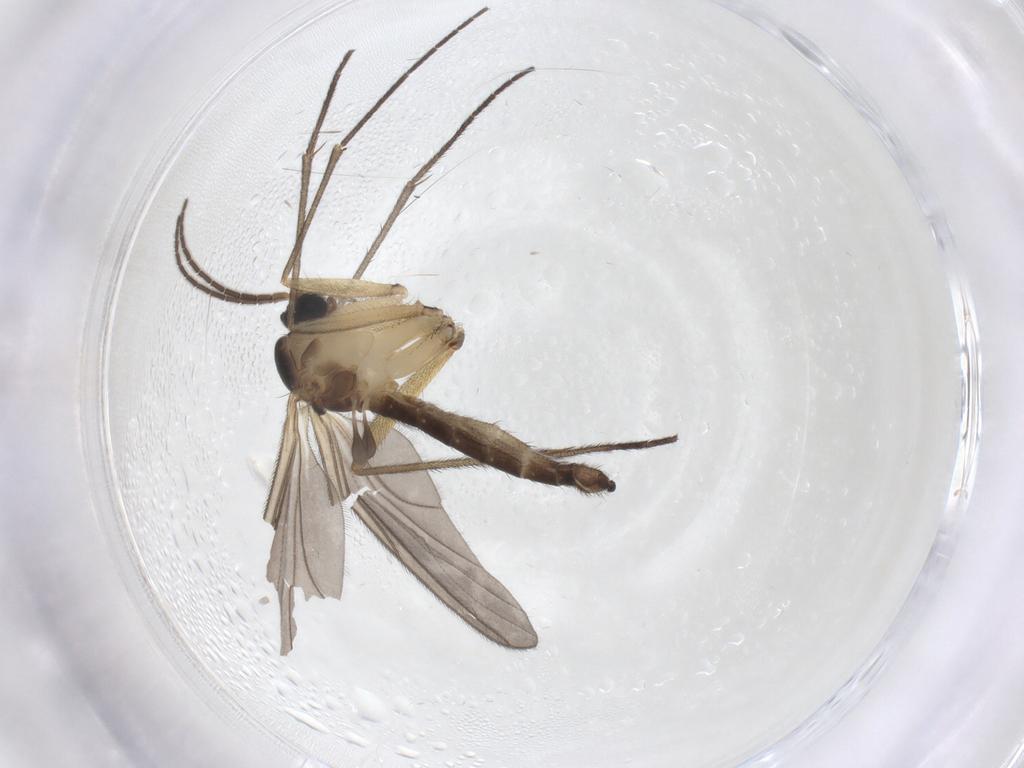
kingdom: Animalia
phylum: Arthropoda
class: Insecta
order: Diptera
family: Sciaridae
